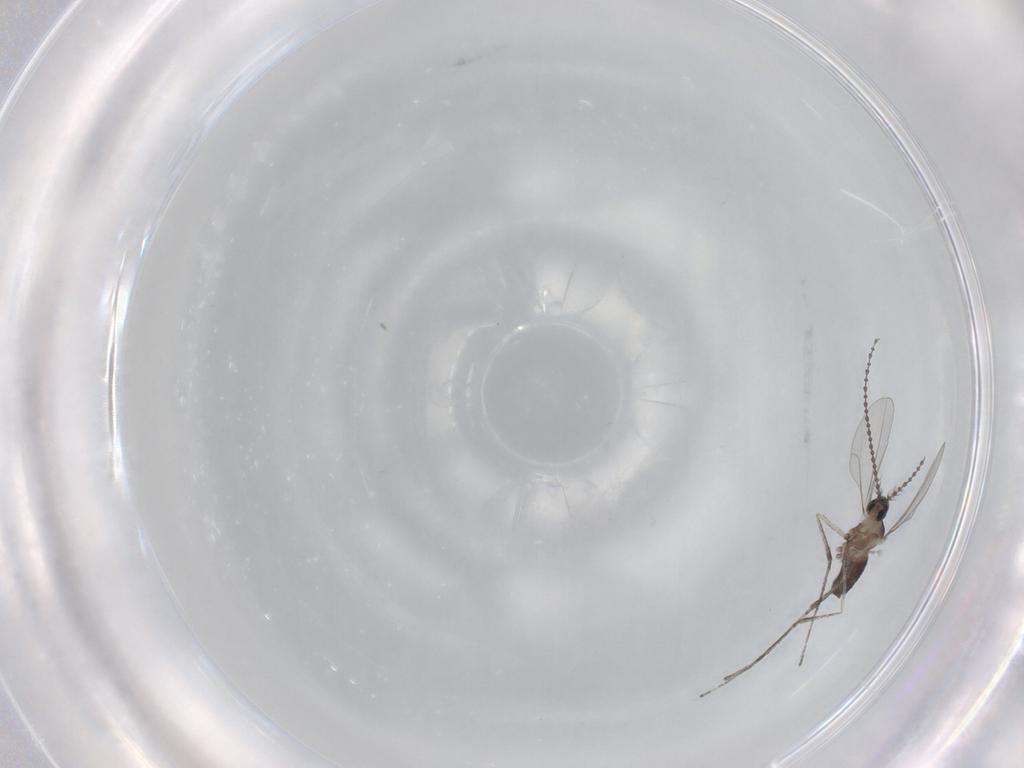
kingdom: Animalia
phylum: Arthropoda
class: Insecta
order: Diptera
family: Cecidomyiidae
